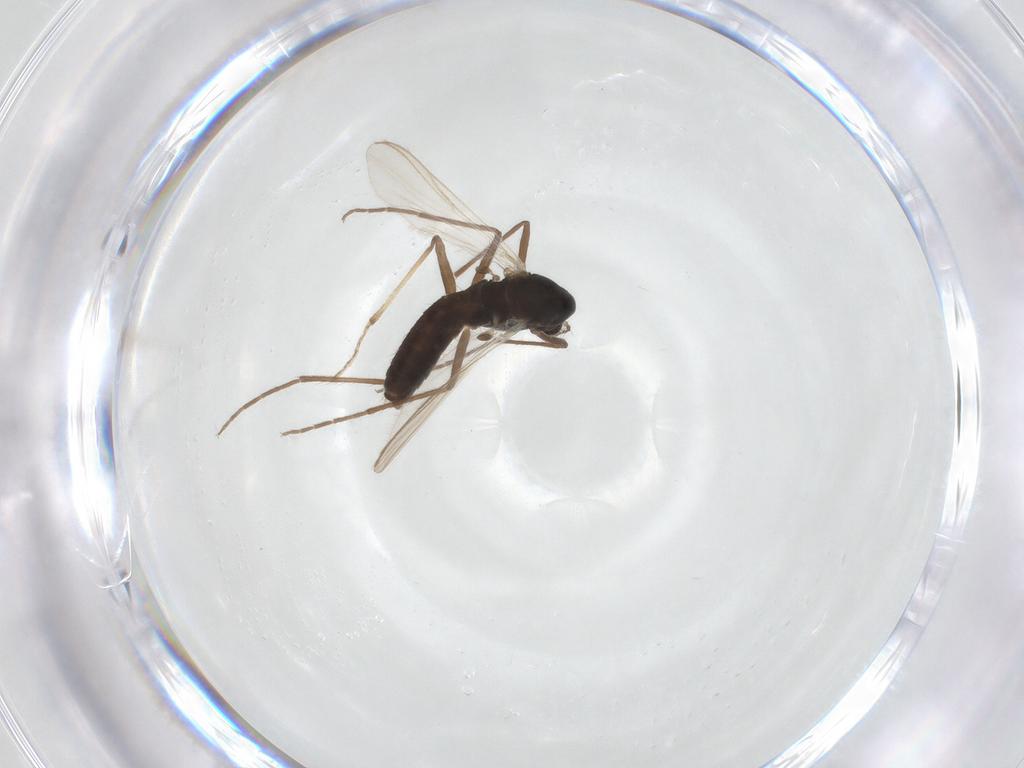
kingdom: Animalia
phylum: Arthropoda
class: Insecta
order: Diptera
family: Chironomidae
